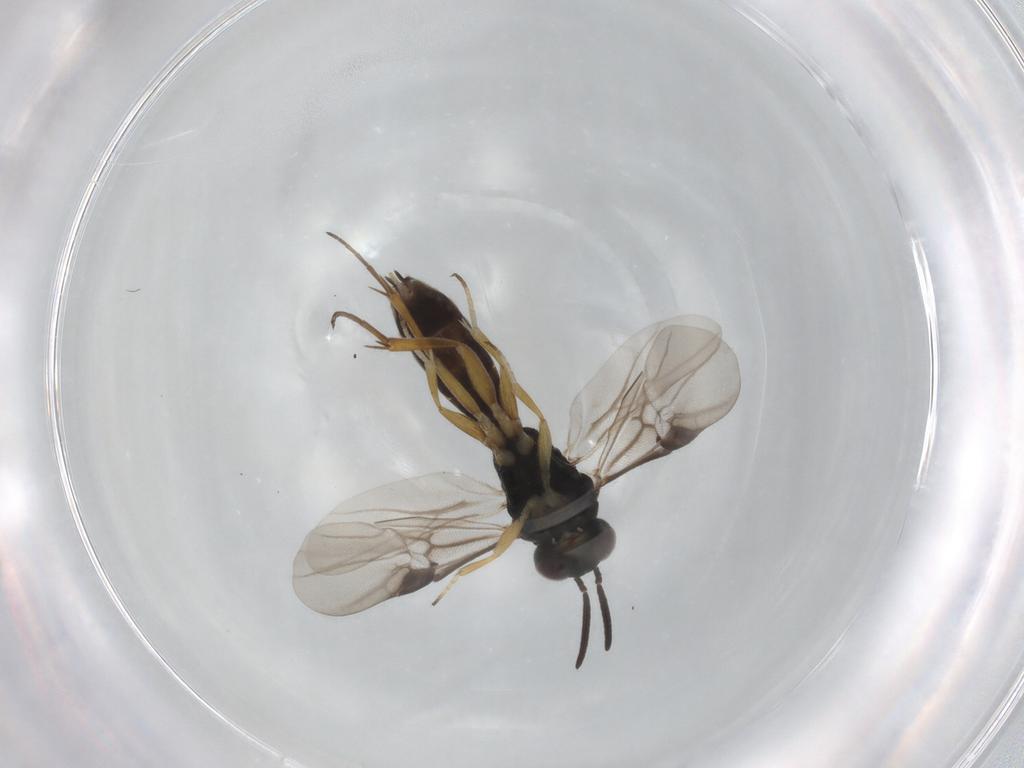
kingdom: Animalia
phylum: Arthropoda
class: Insecta
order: Hymenoptera
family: Braconidae
